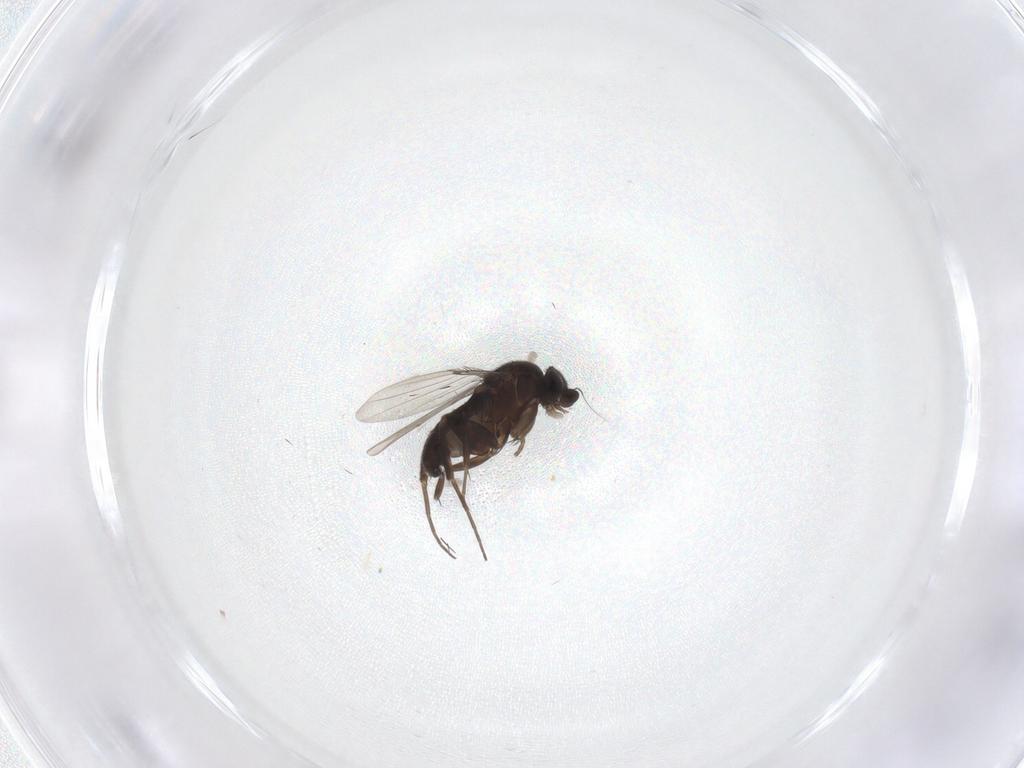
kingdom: Animalia
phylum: Arthropoda
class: Insecta
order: Diptera
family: Phoridae
